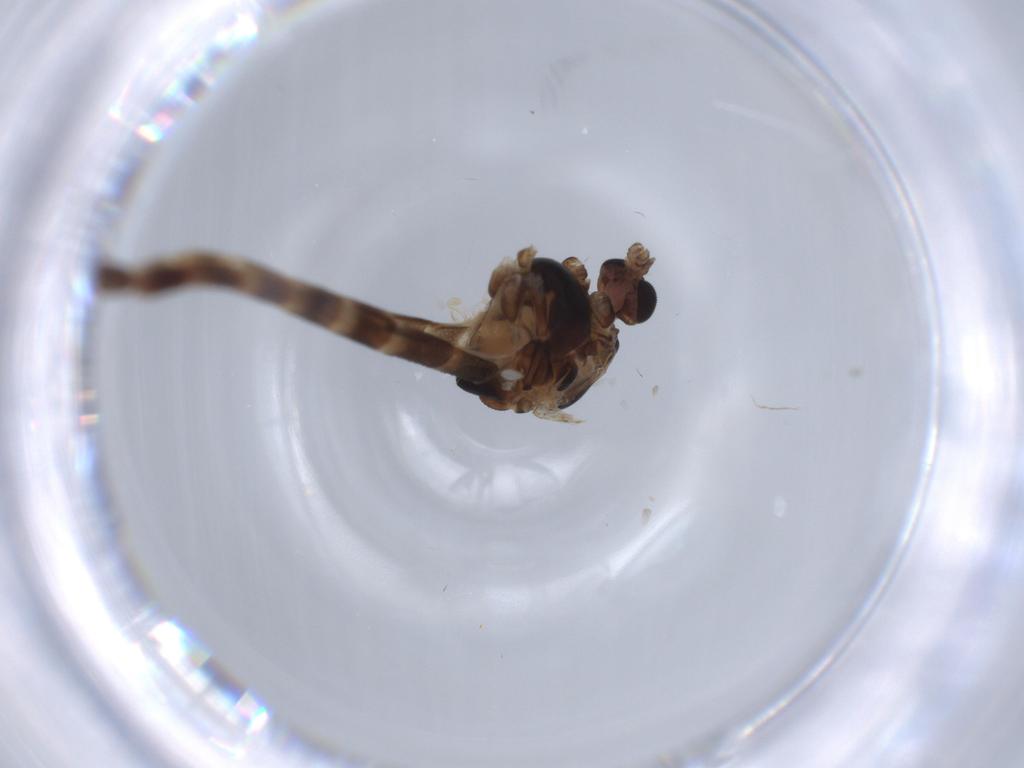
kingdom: Animalia
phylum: Arthropoda
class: Insecta
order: Diptera
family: Chironomidae
